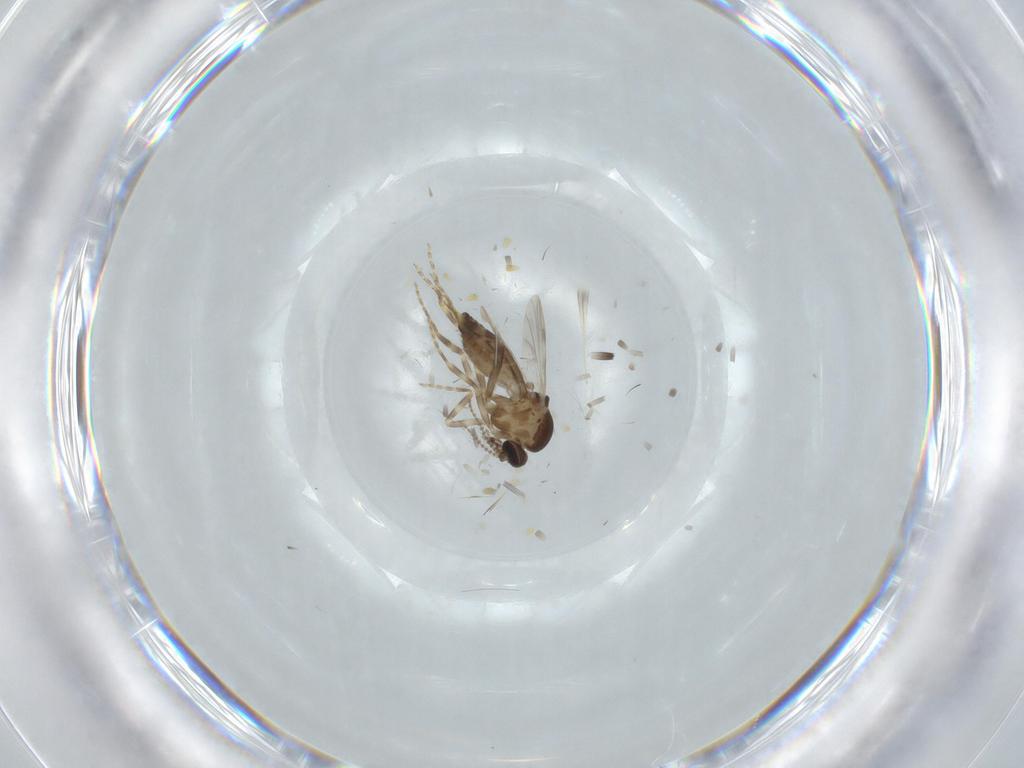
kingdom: Animalia
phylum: Arthropoda
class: Insecta
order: Diptera
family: Ceratopogonidae
